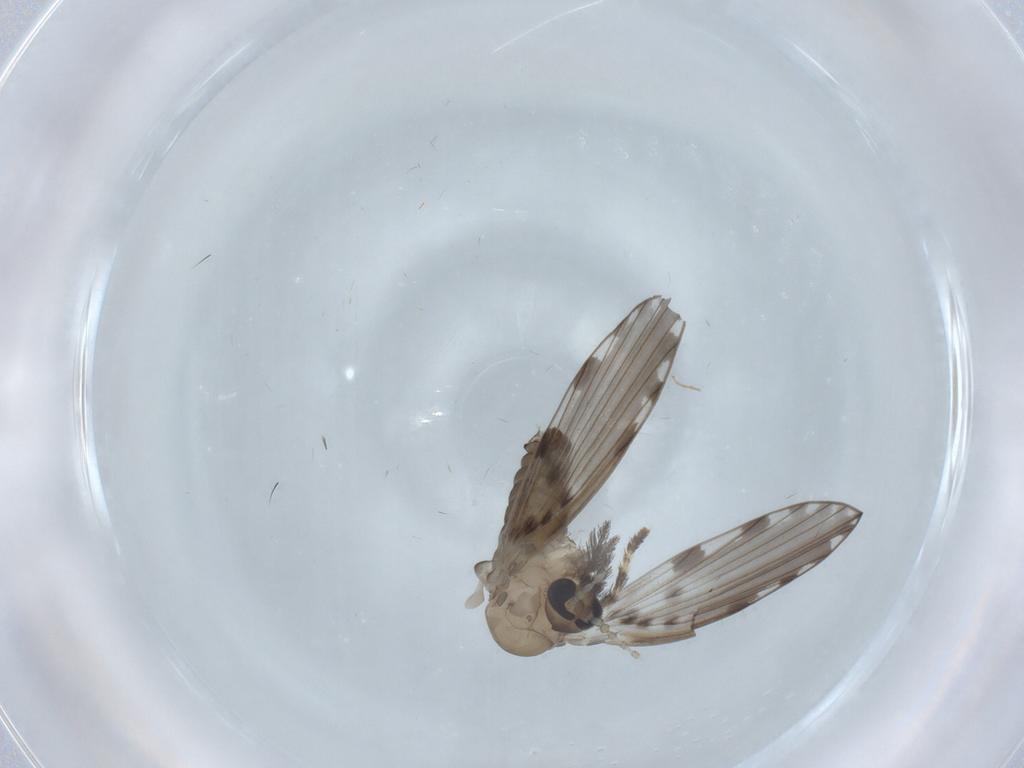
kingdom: Animalia
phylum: Arthropoda
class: Insecta
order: Diptera
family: Phoridae
